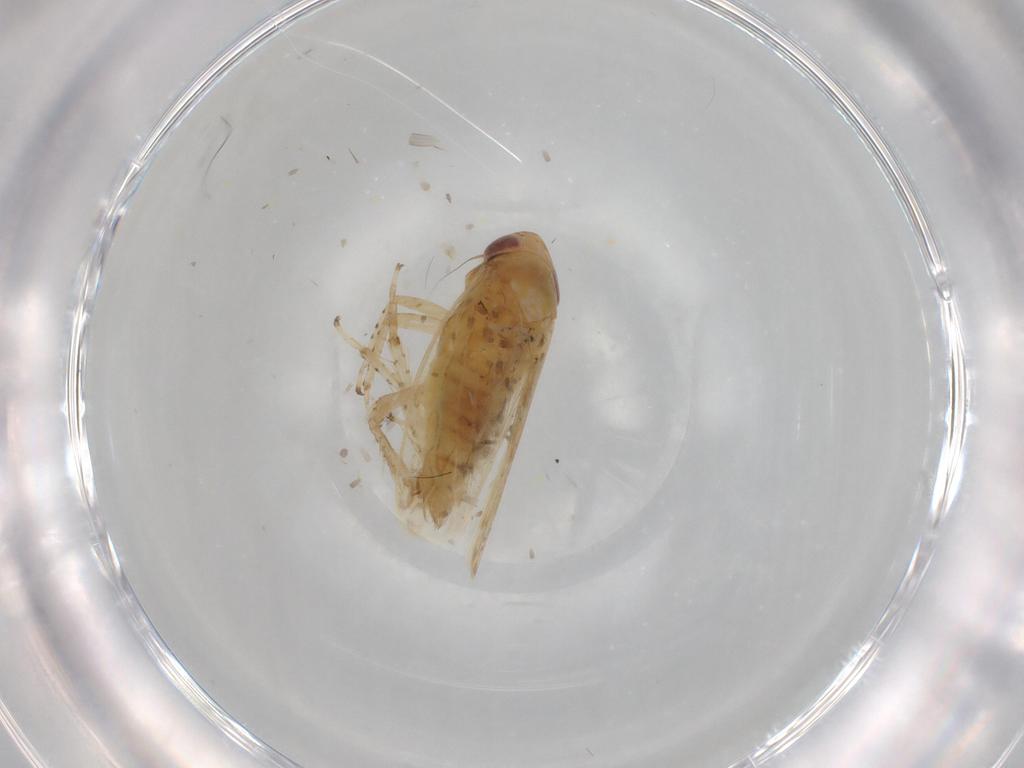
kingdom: Animalia
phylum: Arthropoda
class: Insecta
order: Hemiptera
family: Cicadellidae
